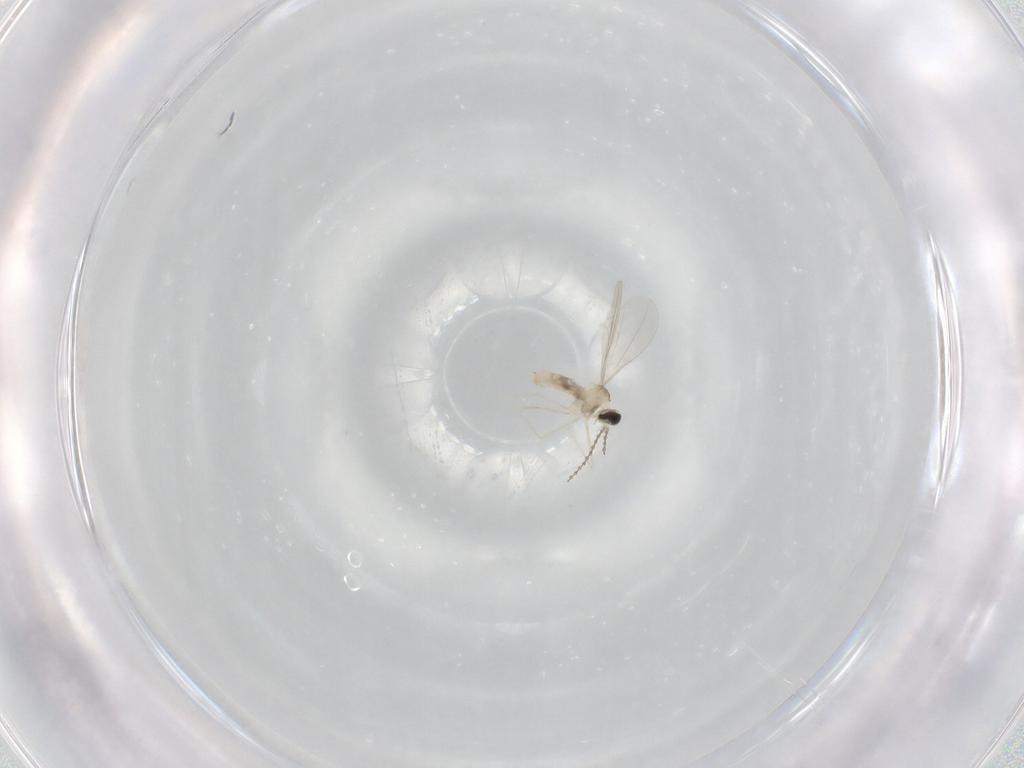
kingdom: Animalia
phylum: Arthropoda
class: Insecta
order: Diptera
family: Cecidomyiidae
